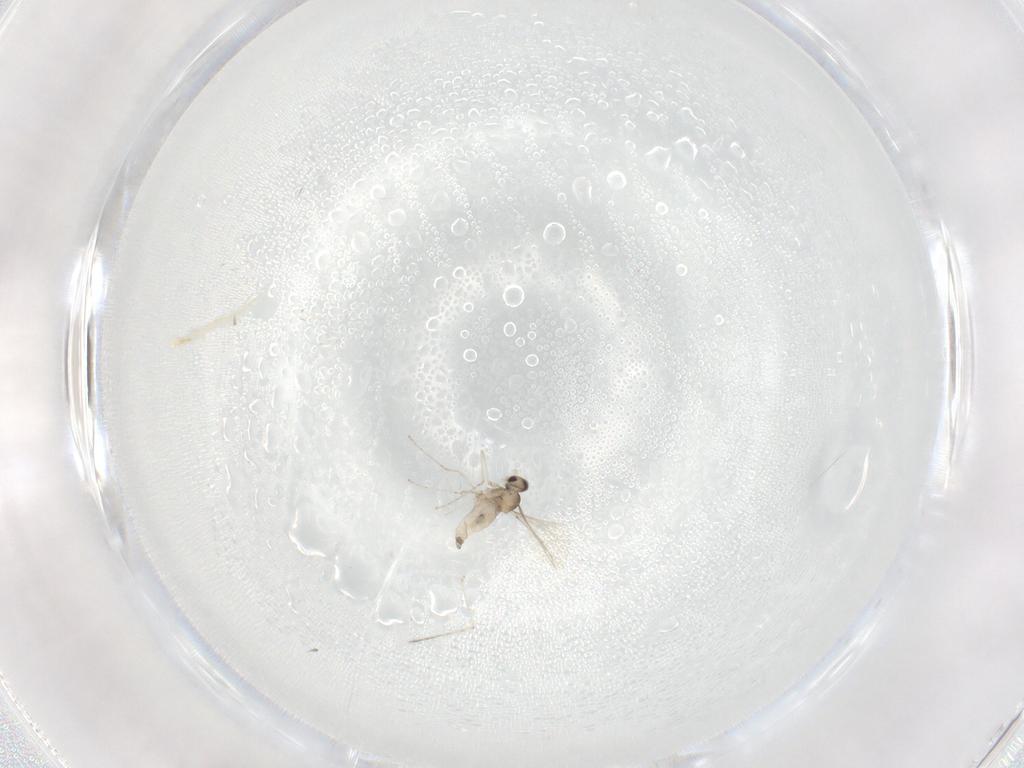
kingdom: Animalia
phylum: Arthropoda
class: Insecta
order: Diptera
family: Cecidomyiidae
